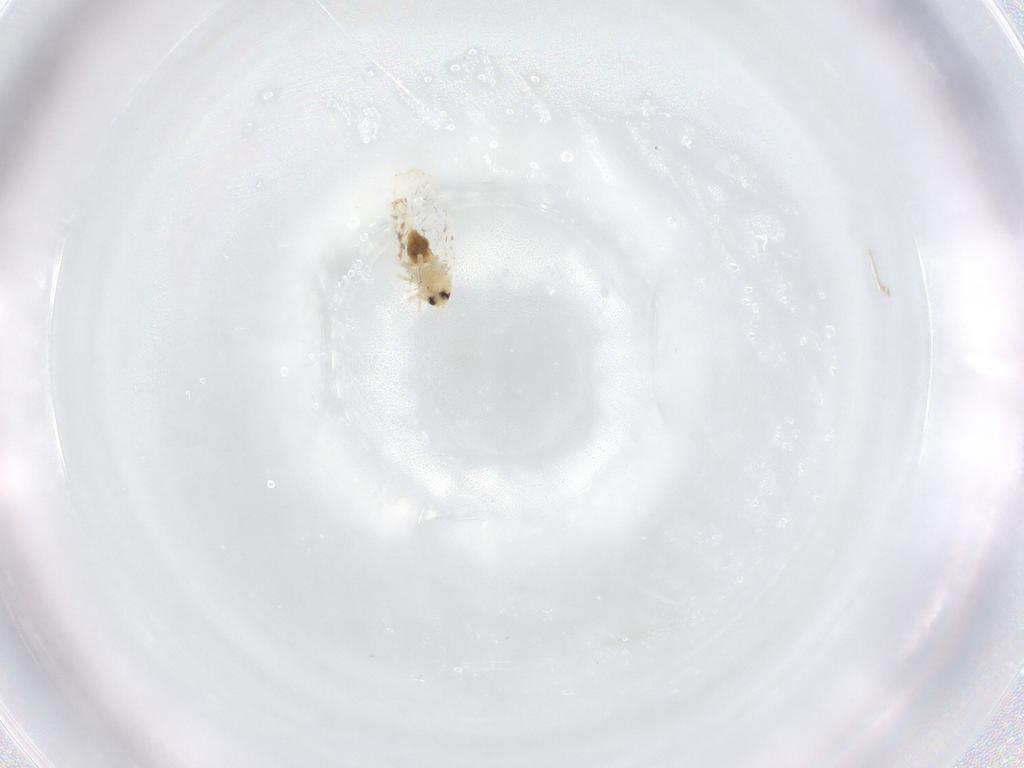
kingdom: Animalia
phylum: Arthropoda
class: Insecta
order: Hemiptera
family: Aleyrodidae
